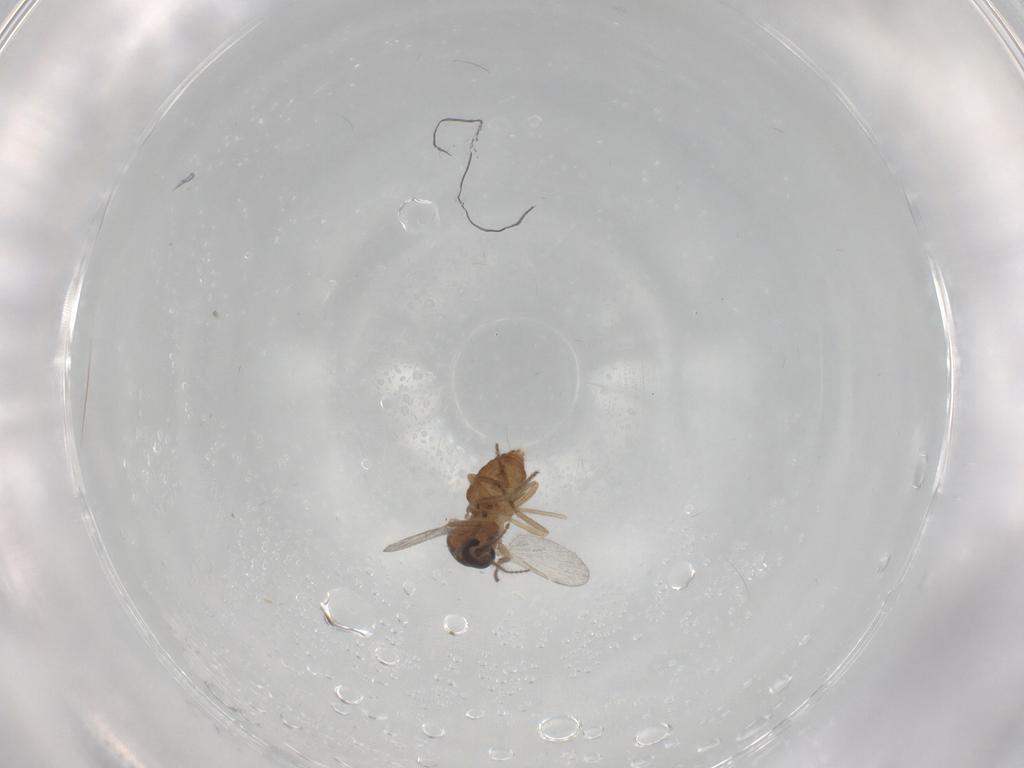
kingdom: Animalia
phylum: Arthropoda
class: Insecta
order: Diptera
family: Ceratopogonidae
